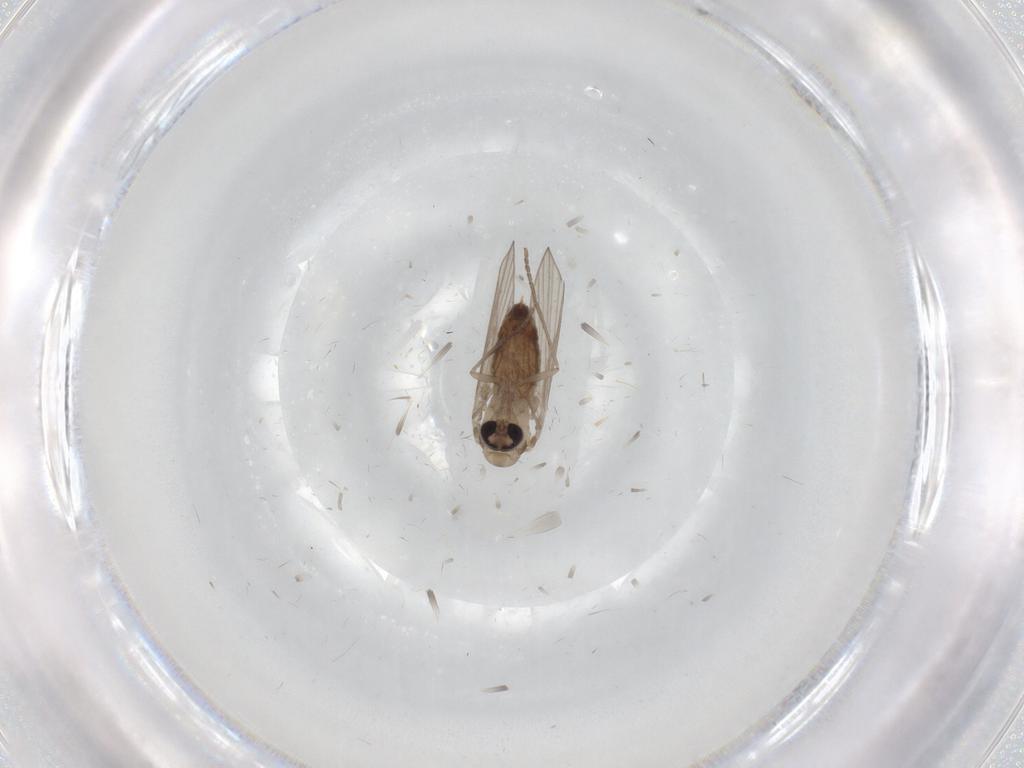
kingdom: Animalia
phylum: Arthropoda
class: Insecta
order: Diptera
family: Psychodidae
